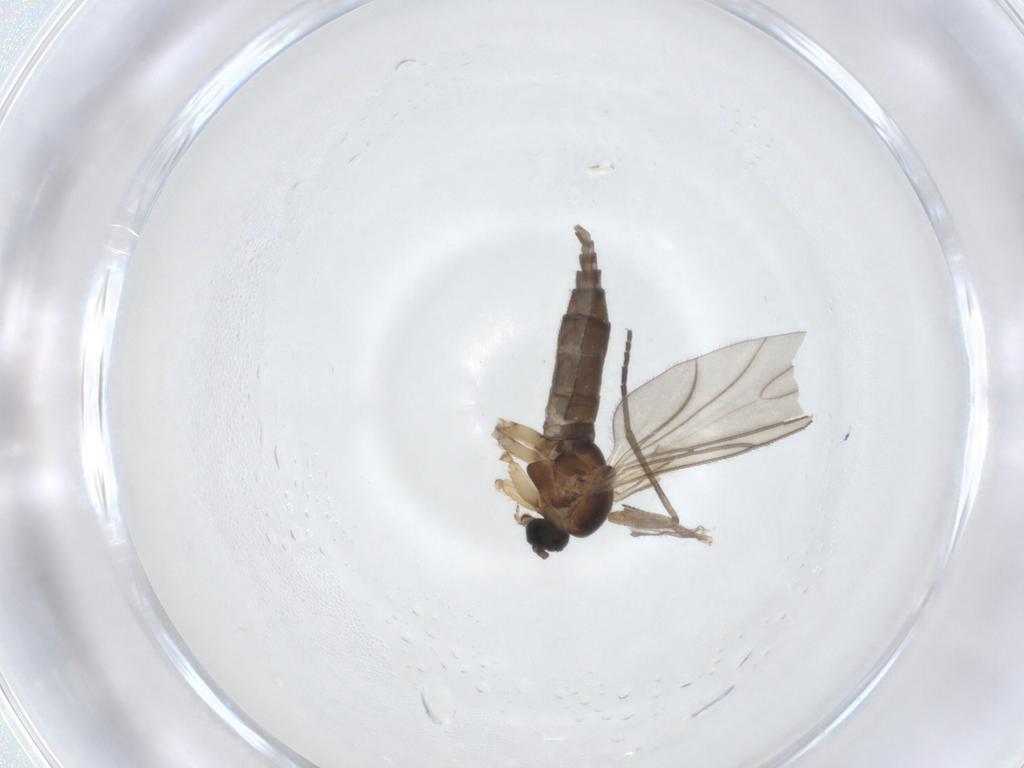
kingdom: Animalia
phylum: Arthropoda
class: Insecta
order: Diptera
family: Sciaridae
